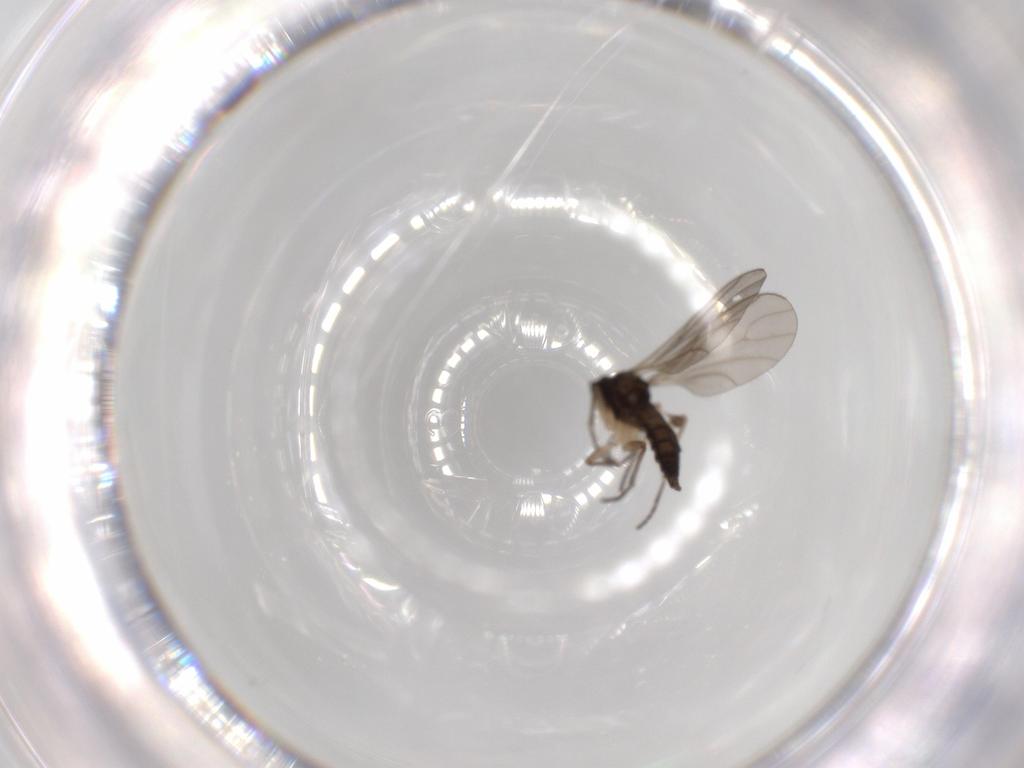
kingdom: Animalia
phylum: Arthropoda
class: Insecta
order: Diptera
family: Sciaridae
